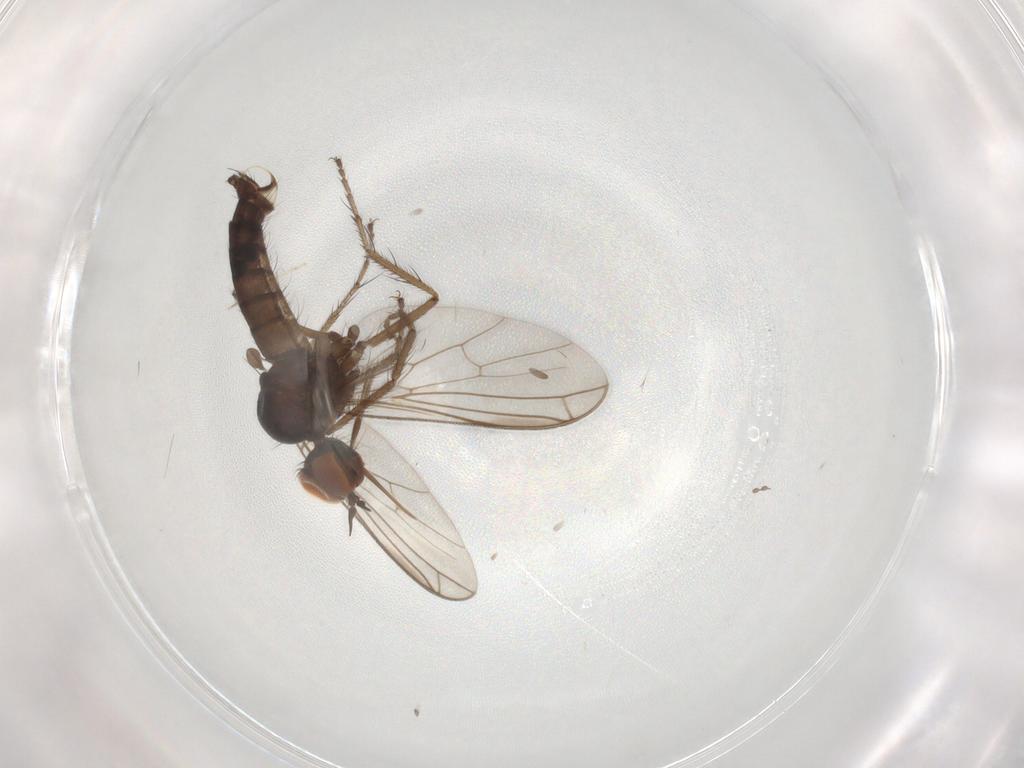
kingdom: Animalia
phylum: Arthropoda
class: Insecta
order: Diptera
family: Empididae
